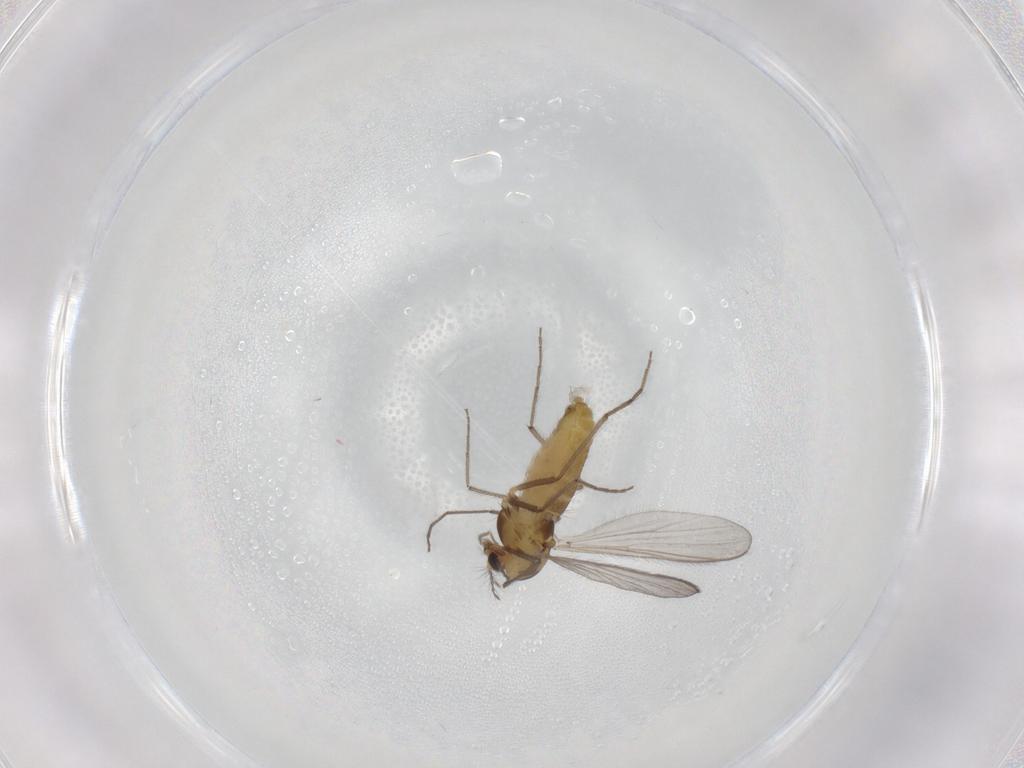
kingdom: Animalia
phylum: Arthropoda
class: Insecta
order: Diptera
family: Chironomidae
